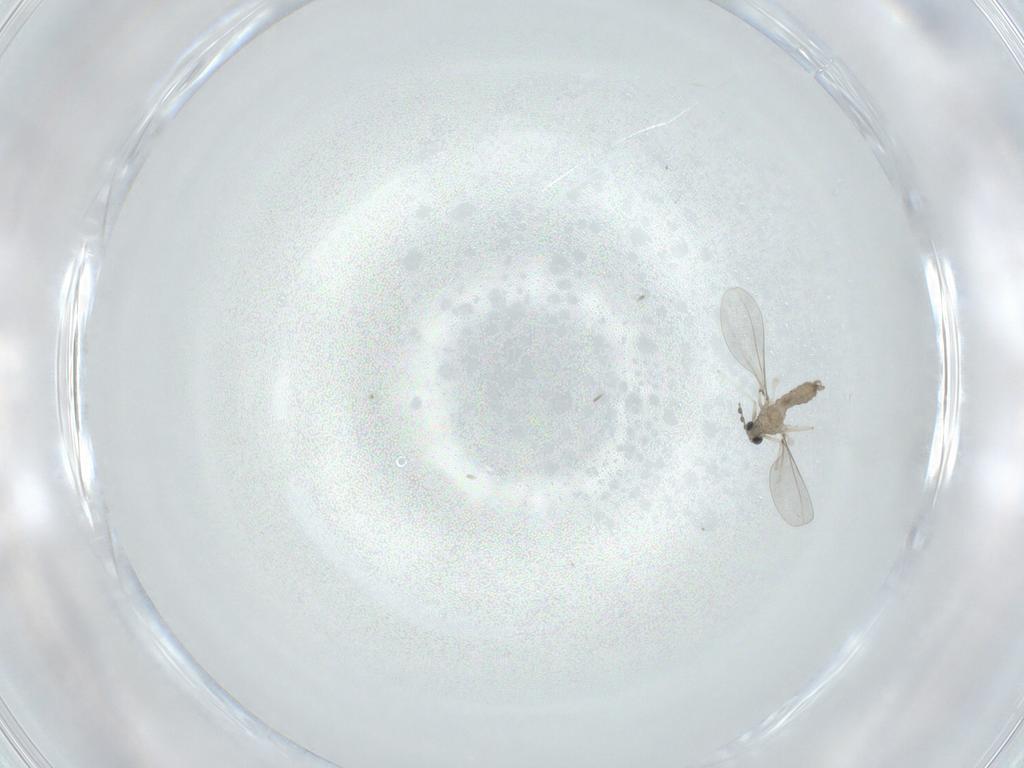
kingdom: Animalia
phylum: Arthropoda
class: Insecta
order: Diptera
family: Cecidomyiidae
